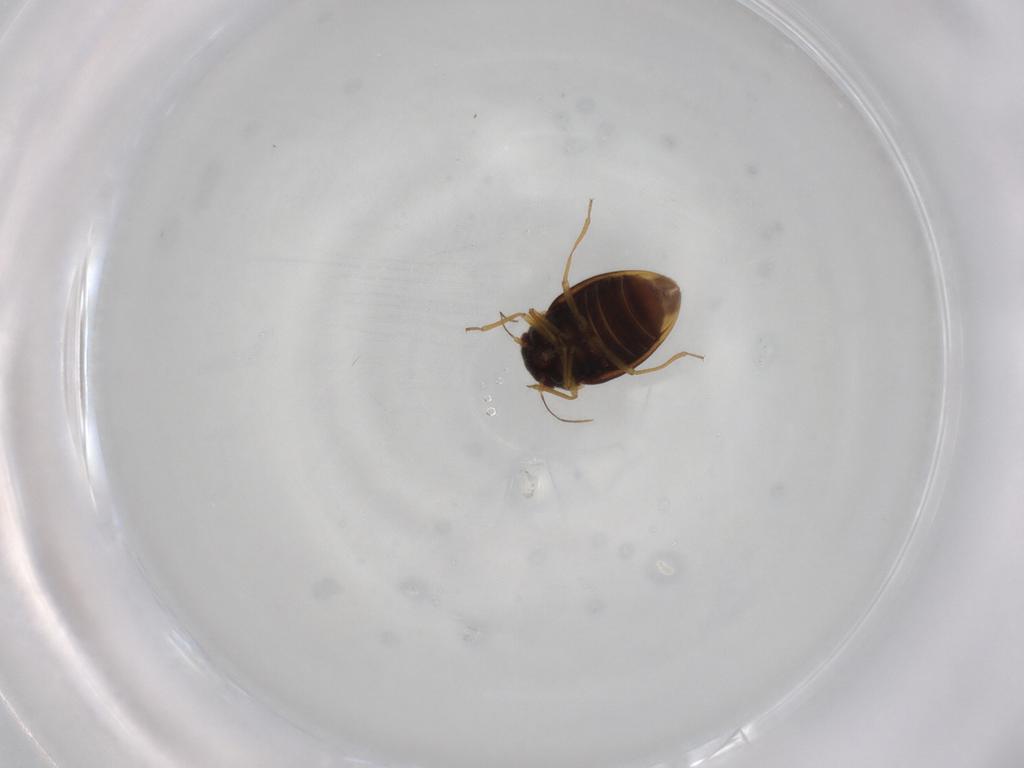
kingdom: Animalia
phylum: Arthropoda
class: Insecta
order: Hemiptera
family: Schizopteridae
